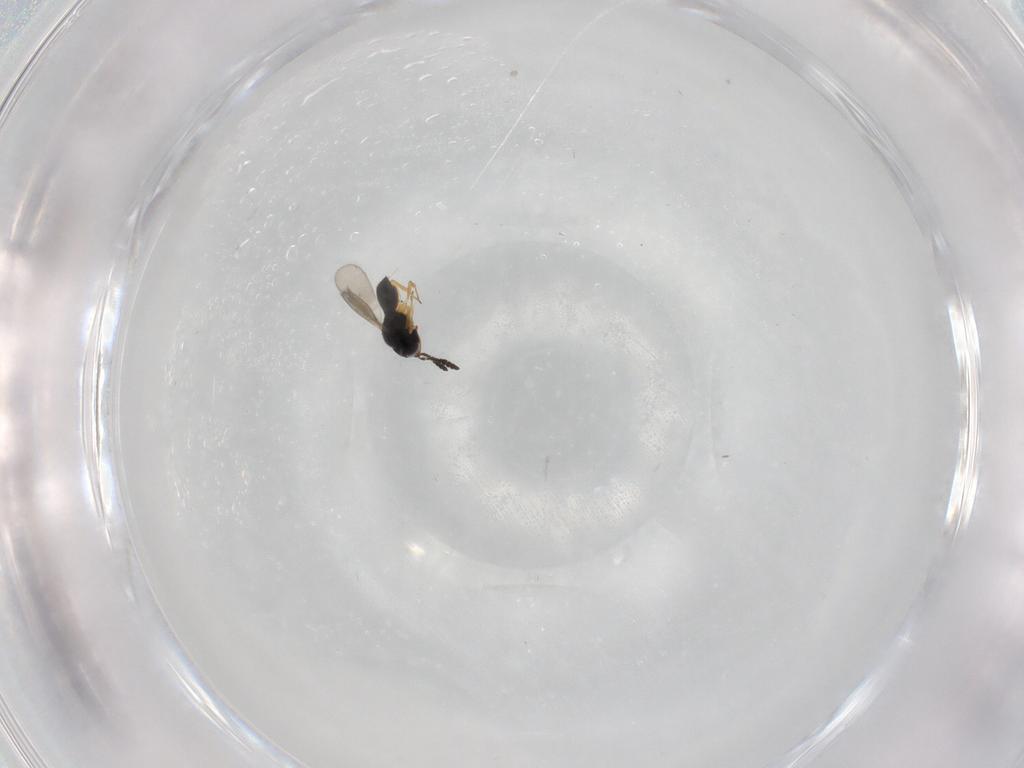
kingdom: Animalia
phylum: Arthropoda
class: Insecta
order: Hymenoptera
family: Scelionidae
